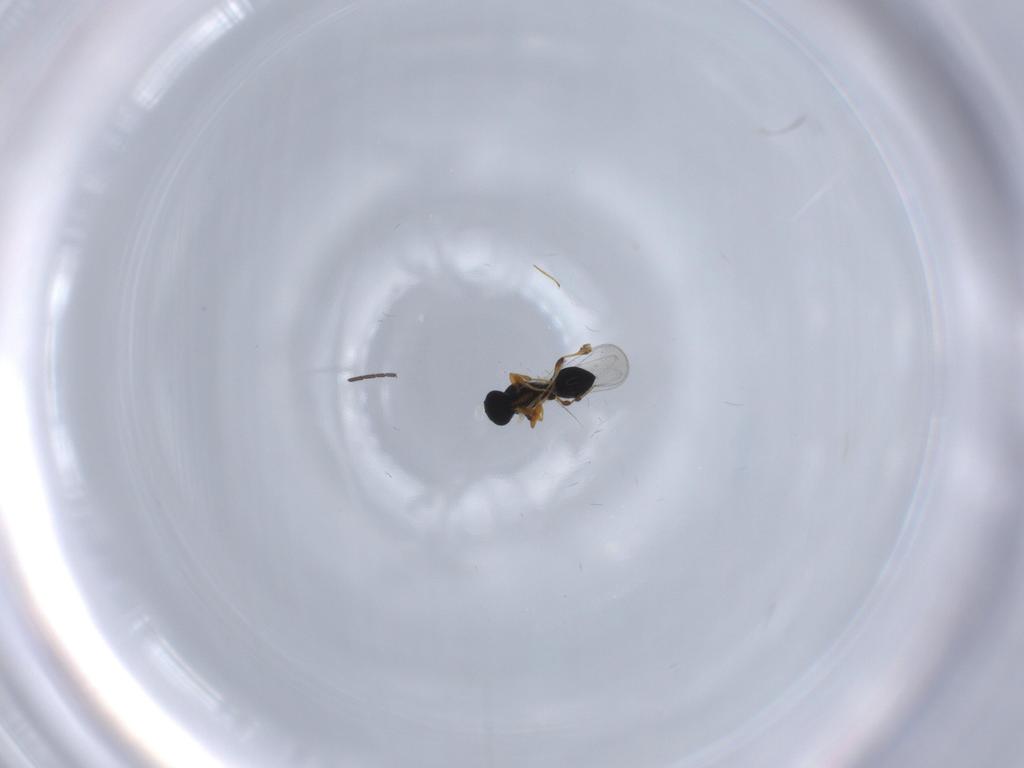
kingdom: Animalia
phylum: Arthropoda
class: Insecta
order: Hymenoptera
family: Platygastridae
